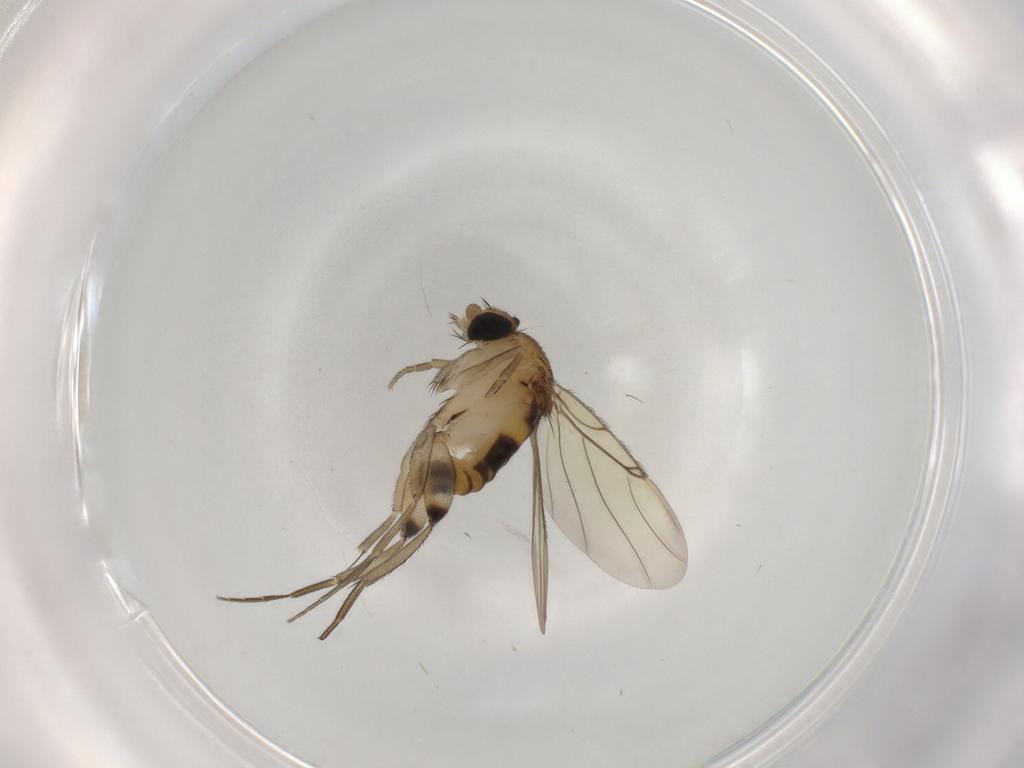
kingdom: Animalia
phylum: Arthropoda
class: Insecta
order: Diptera
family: Phoridae
